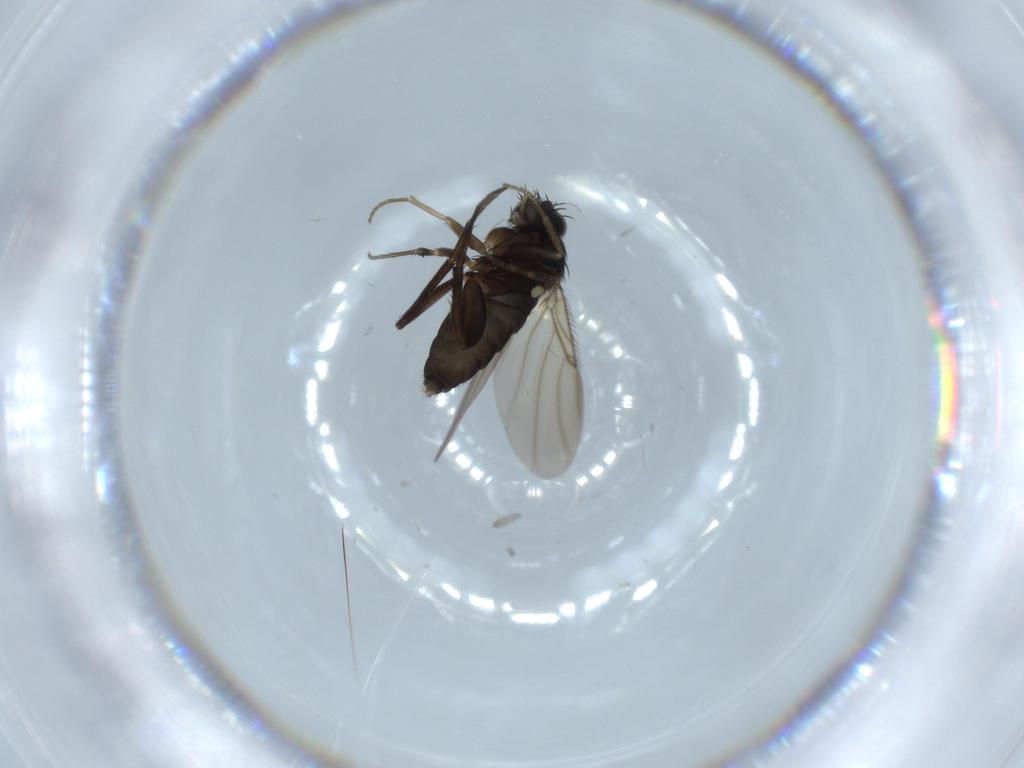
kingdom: Animalia
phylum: Arthropoda
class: Insecta
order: Diptera
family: Phoridae
